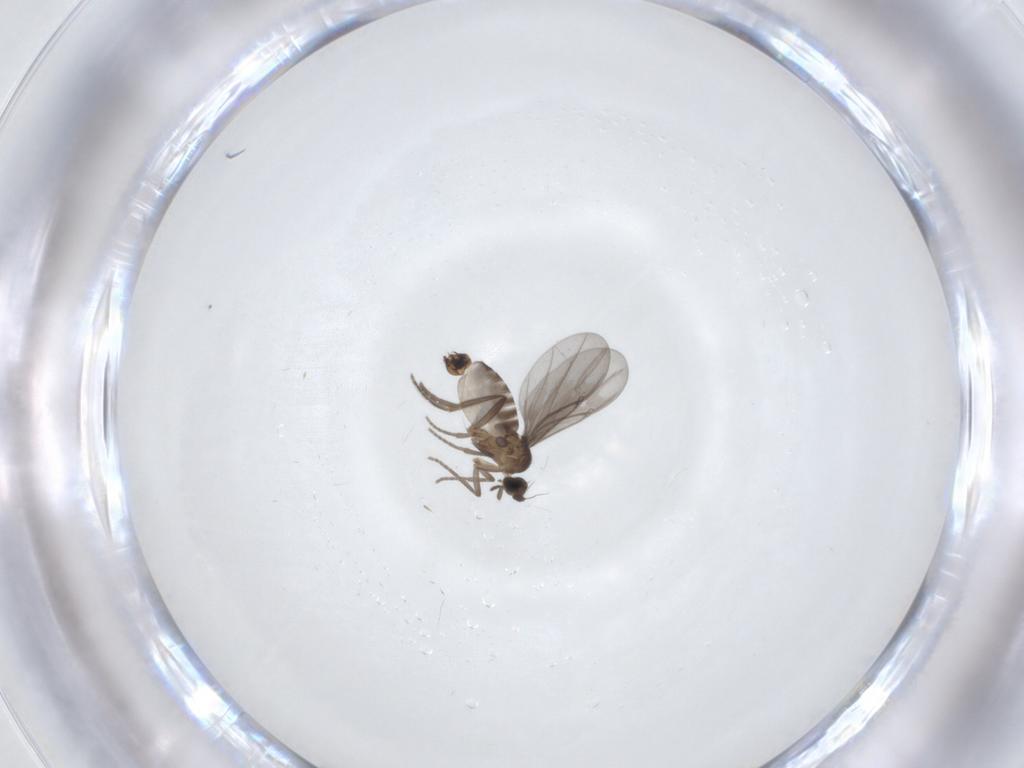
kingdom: Animalia
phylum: Arthropoda
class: Insecta
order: Diptera
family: Phoridae
